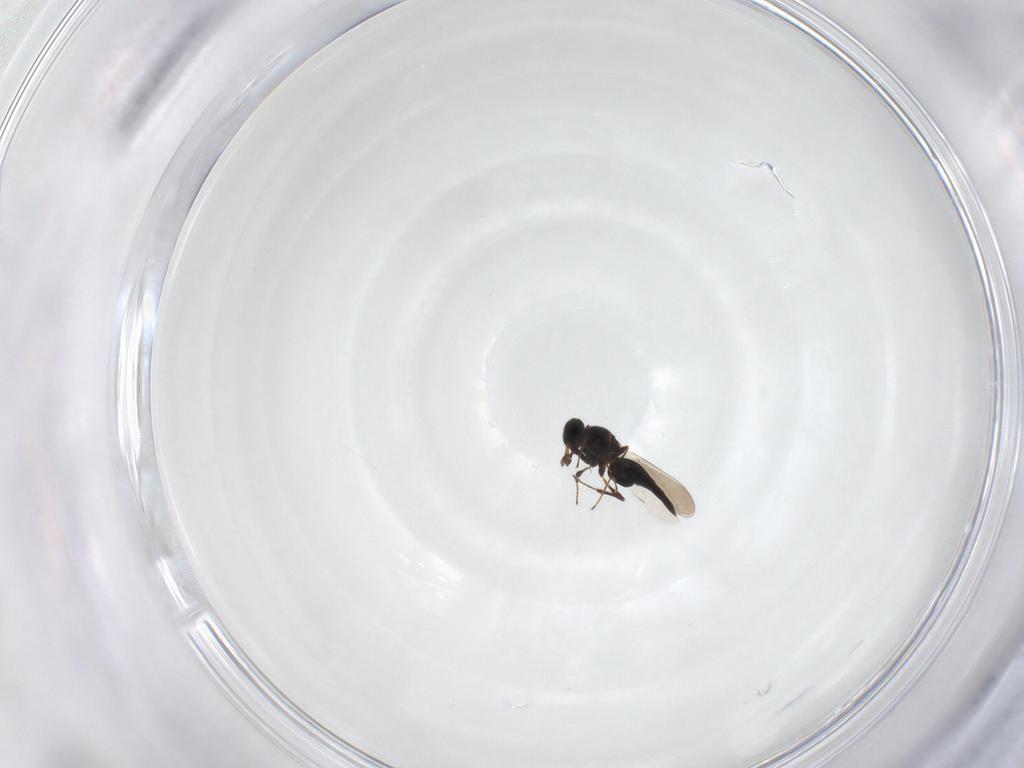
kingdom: Animalia
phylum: Arthropoda
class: Insecta
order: Hymenoptera
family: Platygastridae
